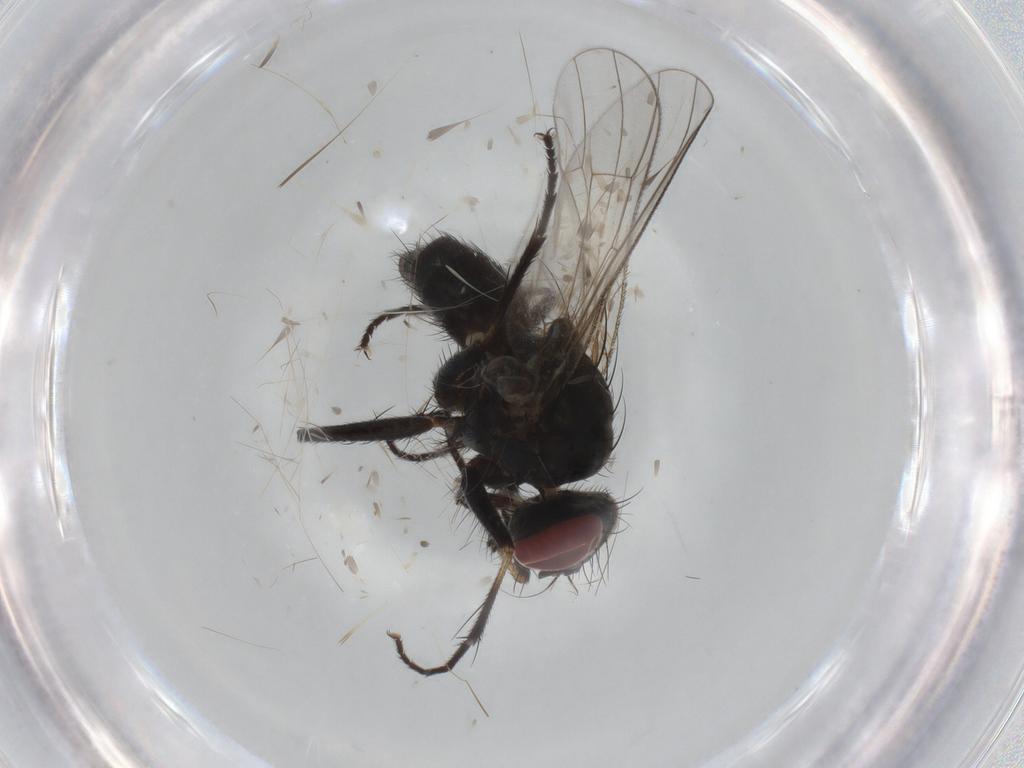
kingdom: Animalia
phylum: Arthropoda
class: Insecta
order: Diptera
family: Muscidae
